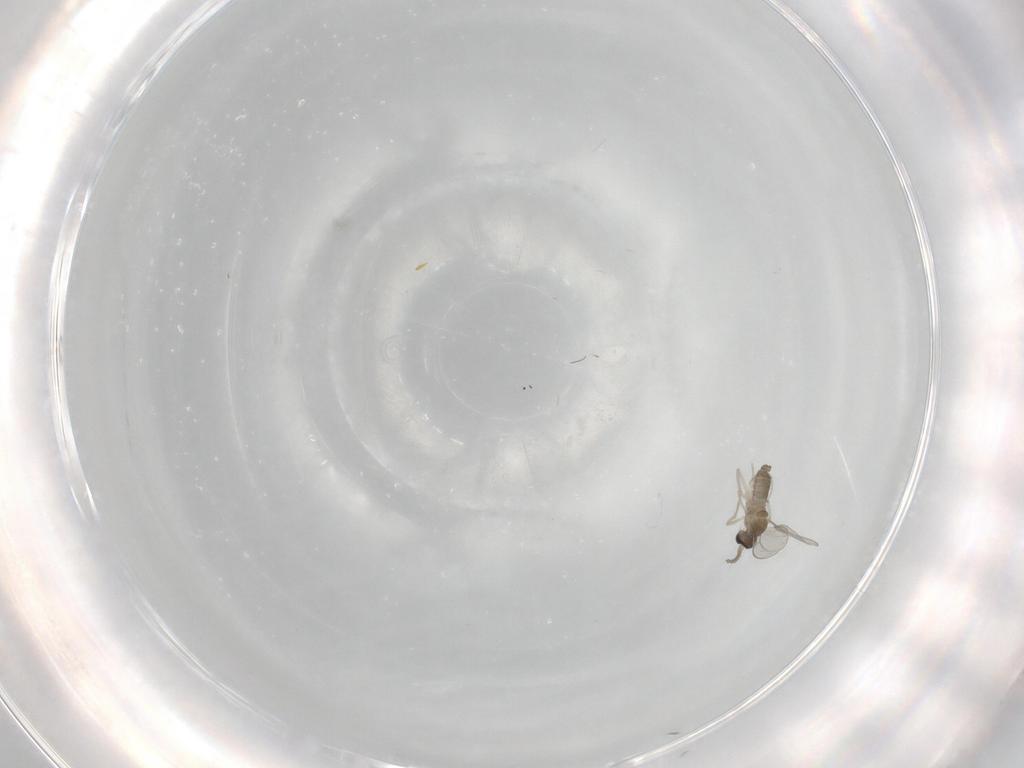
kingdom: Animalia
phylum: Arthropoda
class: Insecta
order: Diptera
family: Cecidomyiidae
